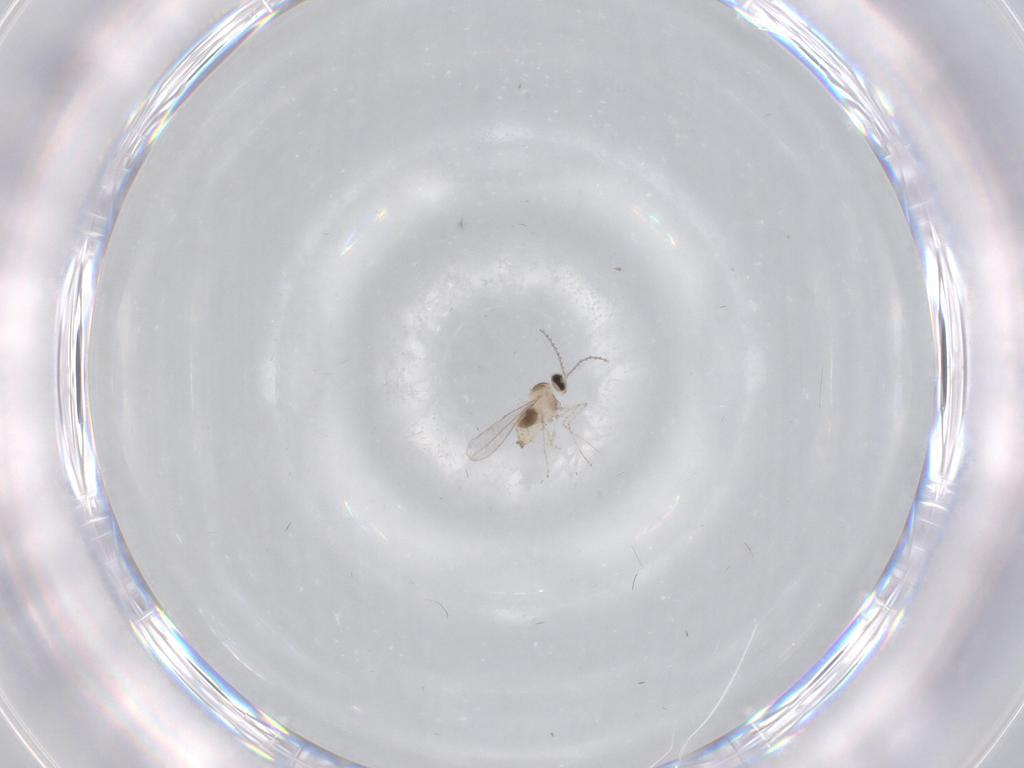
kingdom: Animalia
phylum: Arthropoda
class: Insecta
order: Diptera
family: Cecidomyiidae
